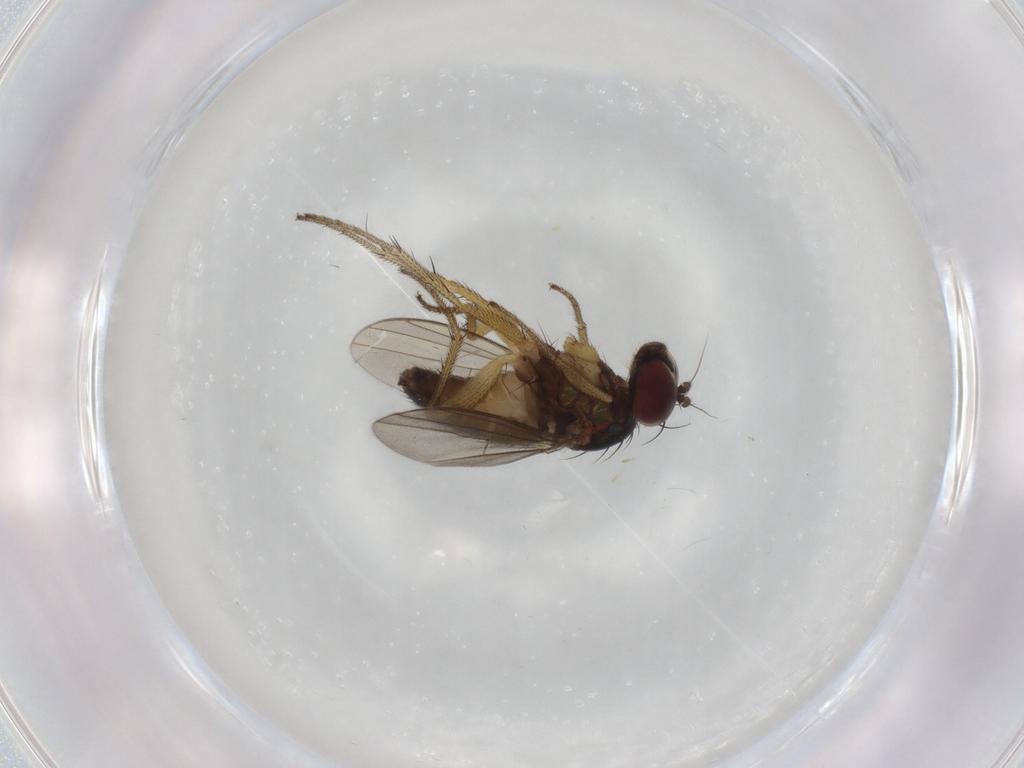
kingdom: Animalia
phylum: Arthropoda
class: Insecta
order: Diptera
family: Dolichopodidae
